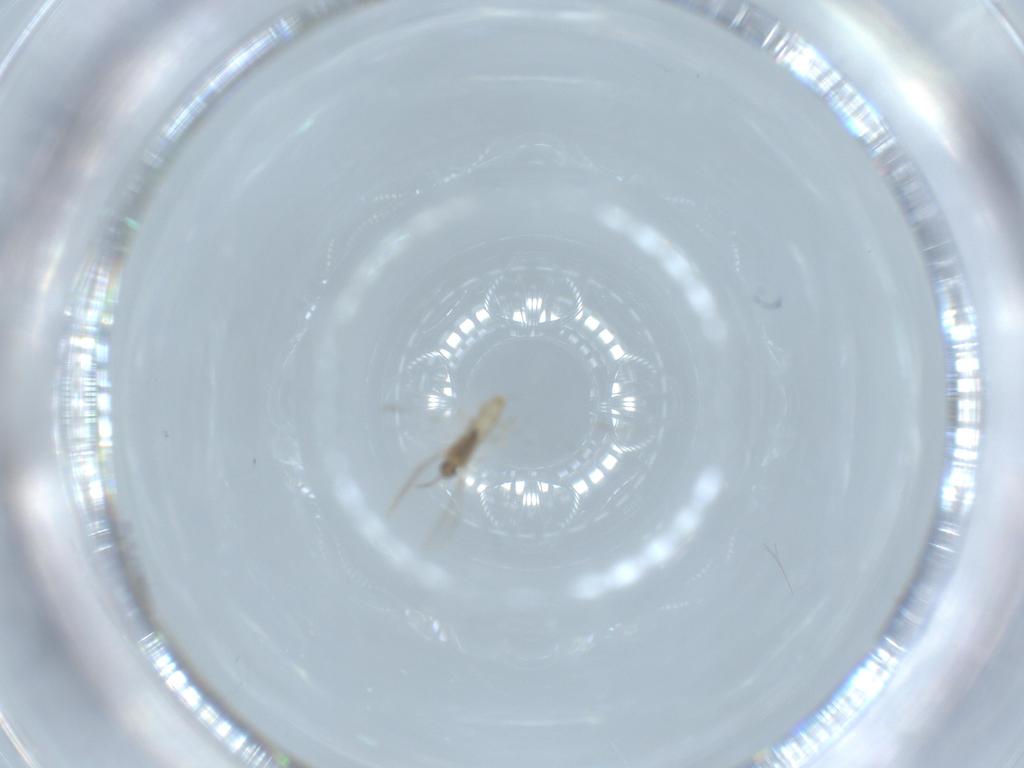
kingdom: Animalia
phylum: Arthropoda
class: Insecta
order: Diptera
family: Cecidomyiidae
